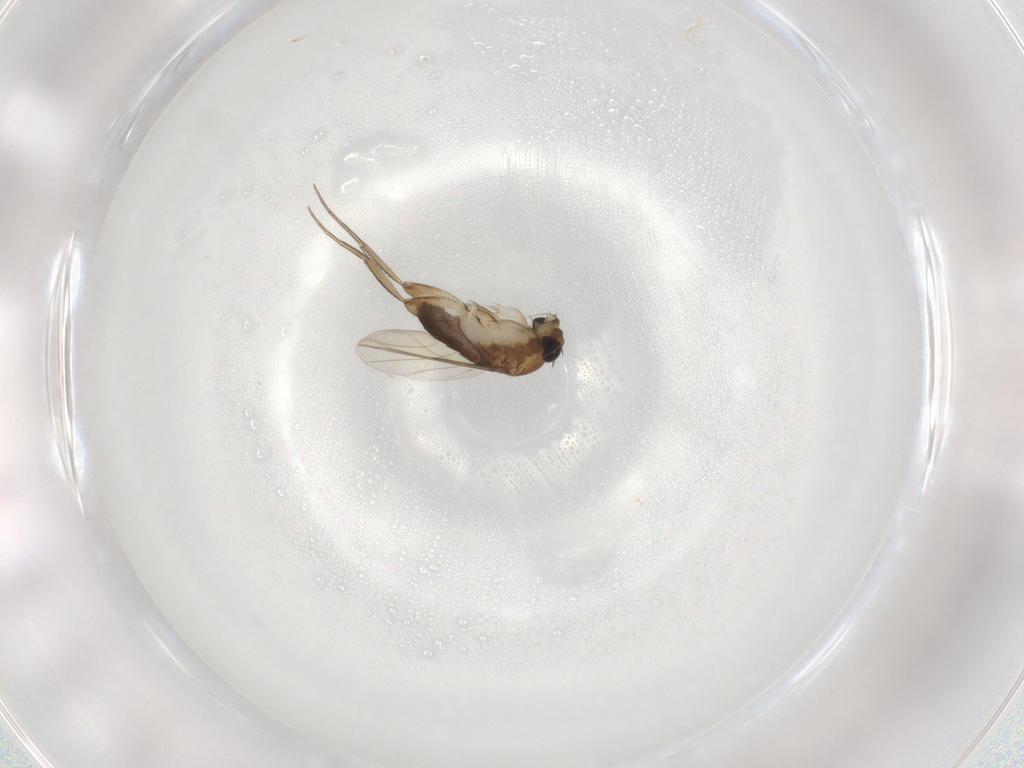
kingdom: Animalia
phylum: Arthropoda
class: Insecta
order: Diptera
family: Phoridae
